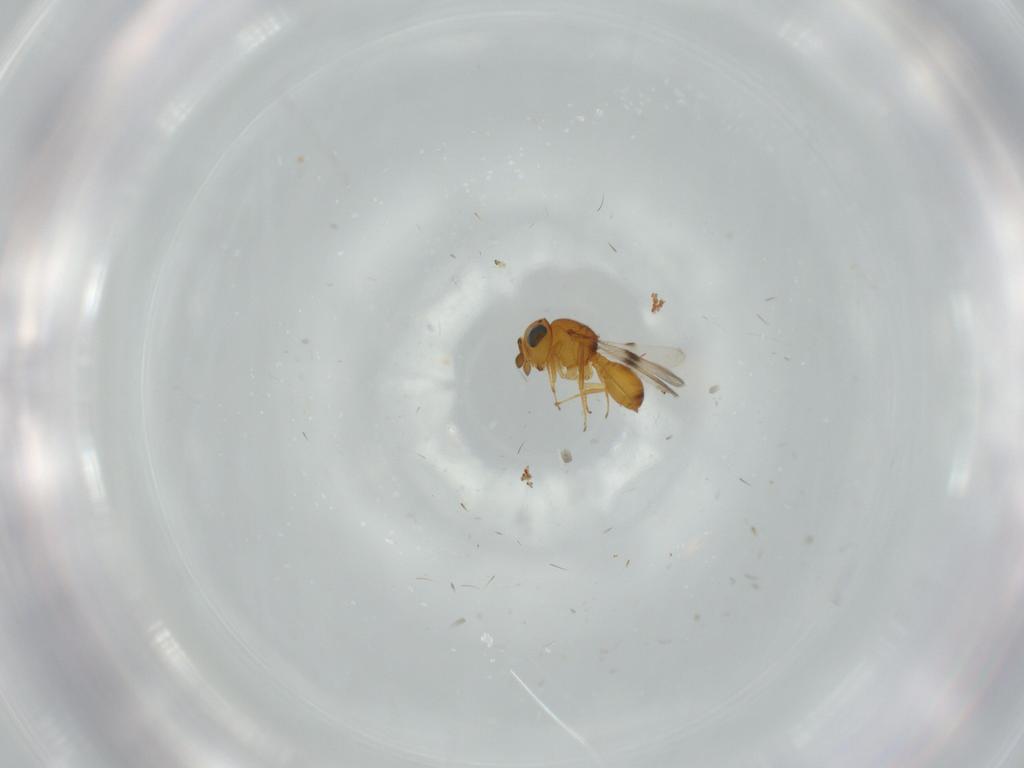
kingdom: Animalia
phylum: Arthropoda
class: Insecta
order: Hymenoptera
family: Scelionidae
